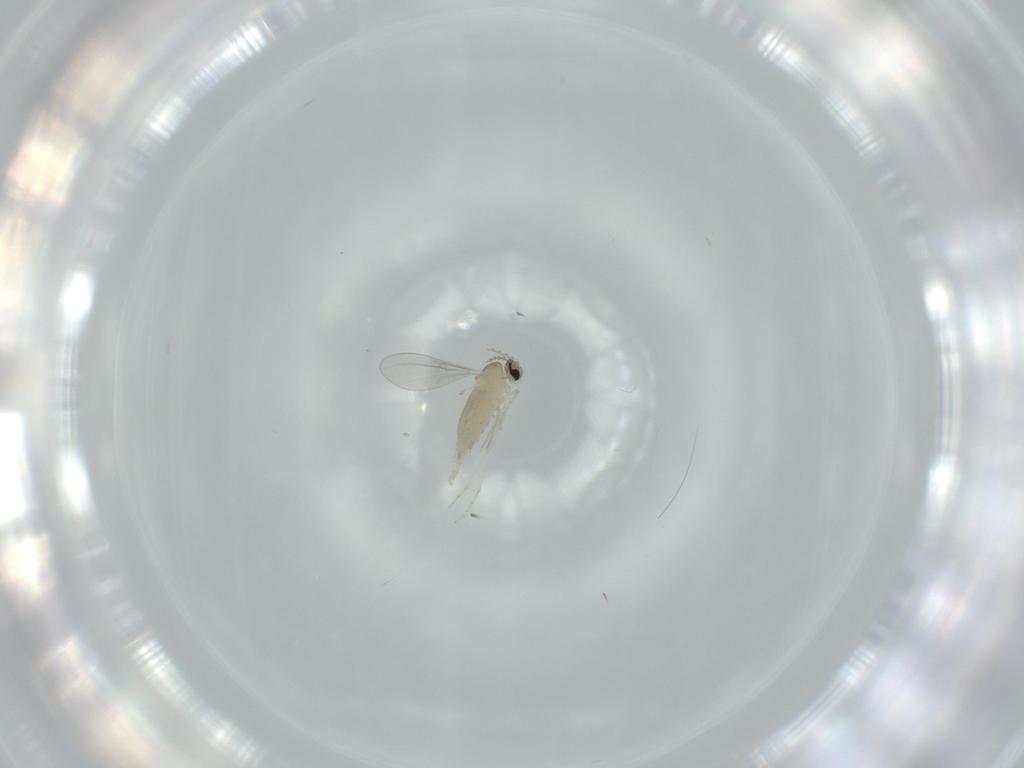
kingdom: Animalia
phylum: Arthropoda
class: Insecta
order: Diptera
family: Cecidomyiidae
